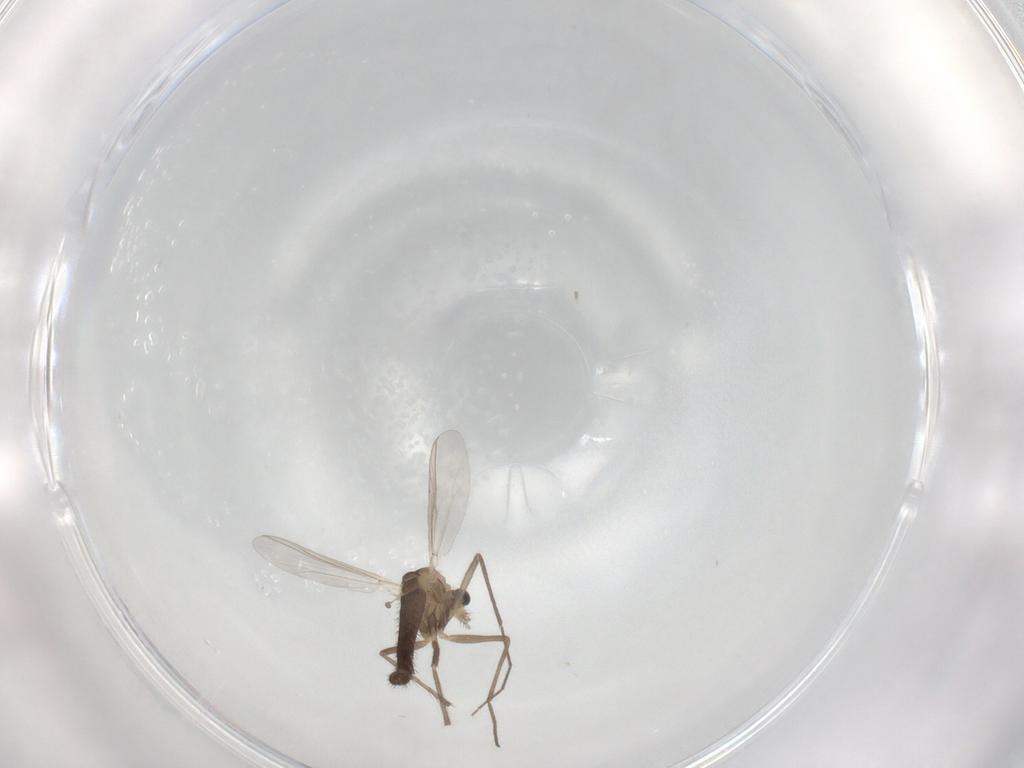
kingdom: Animalia
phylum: Arthropoda
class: Insecta
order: Diptera
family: Chironomidae
